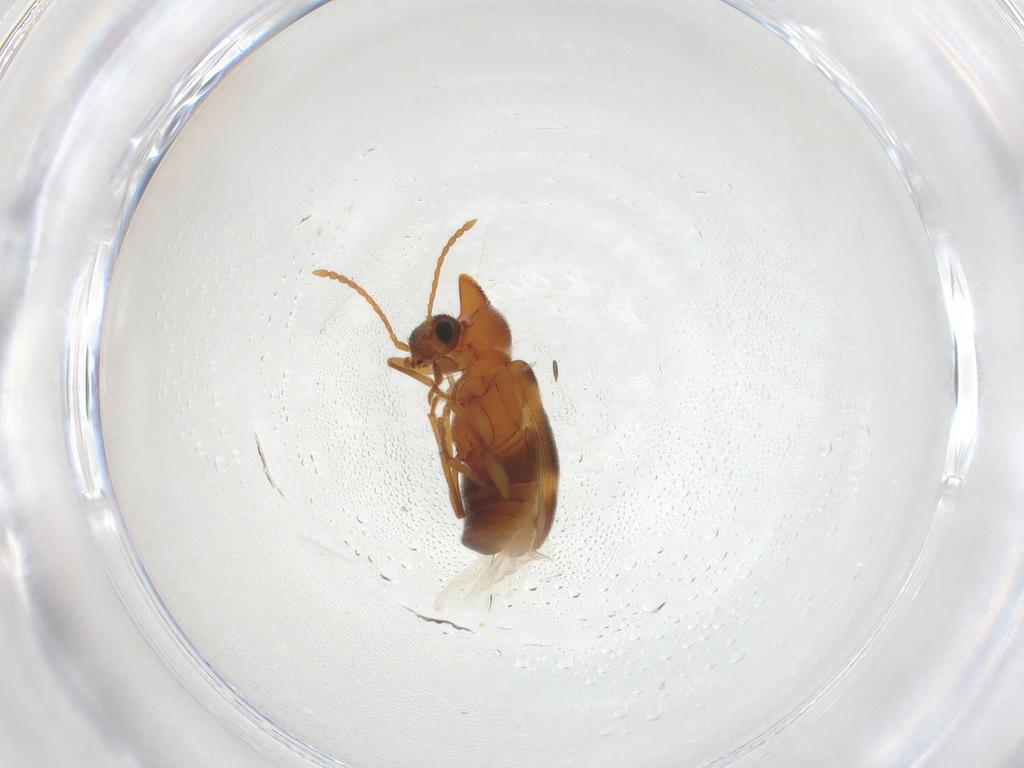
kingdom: Animalia
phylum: Arthropoda
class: Insecta
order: Coleoptera
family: Anthicidae
